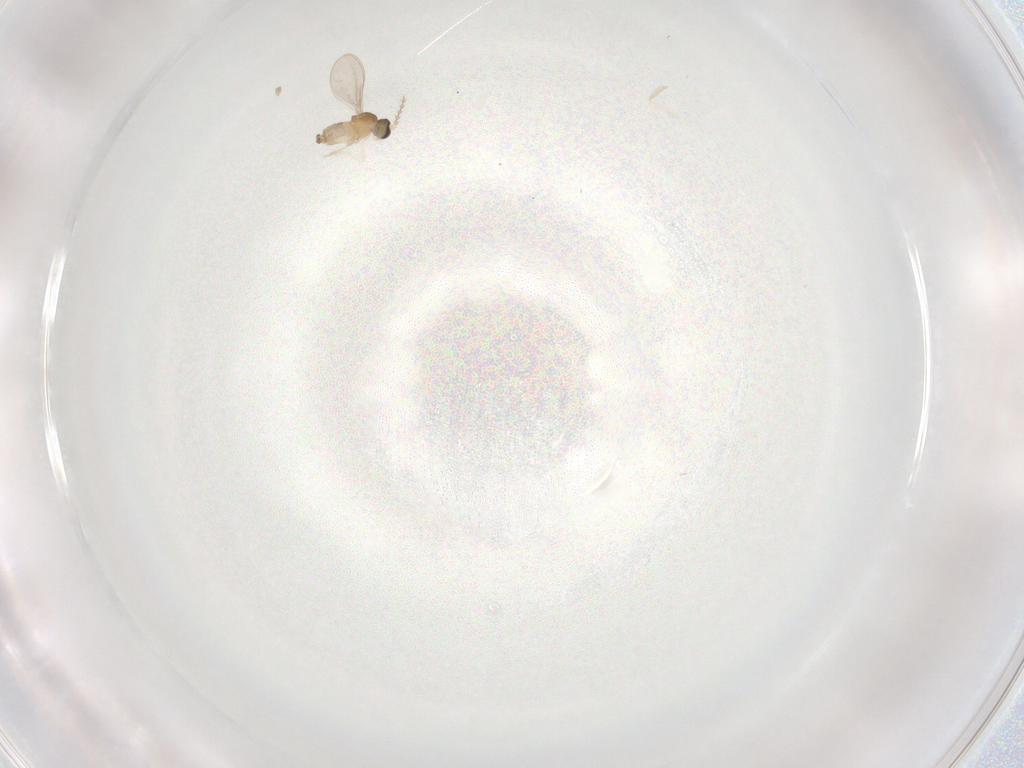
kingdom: Animalia
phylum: Arthropoda
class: Insecta
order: Diptera
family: Cecidomyiidae
